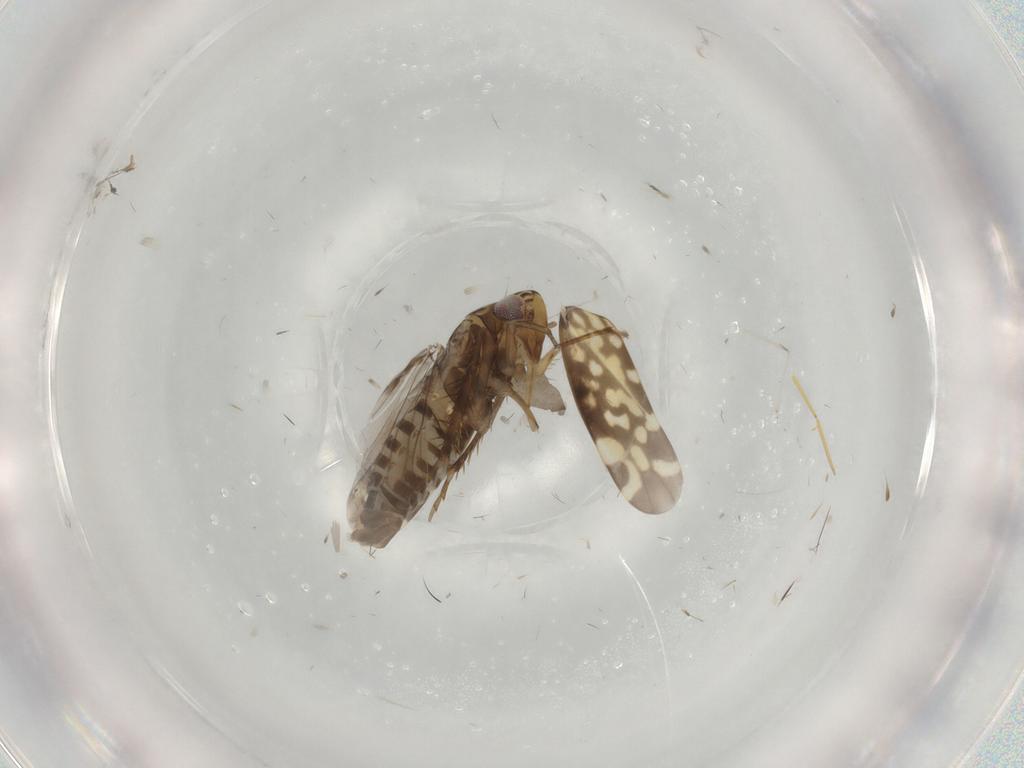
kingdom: Animalia
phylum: Arthropoda
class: Insecta
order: Hemiptera
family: Cicadellidae
